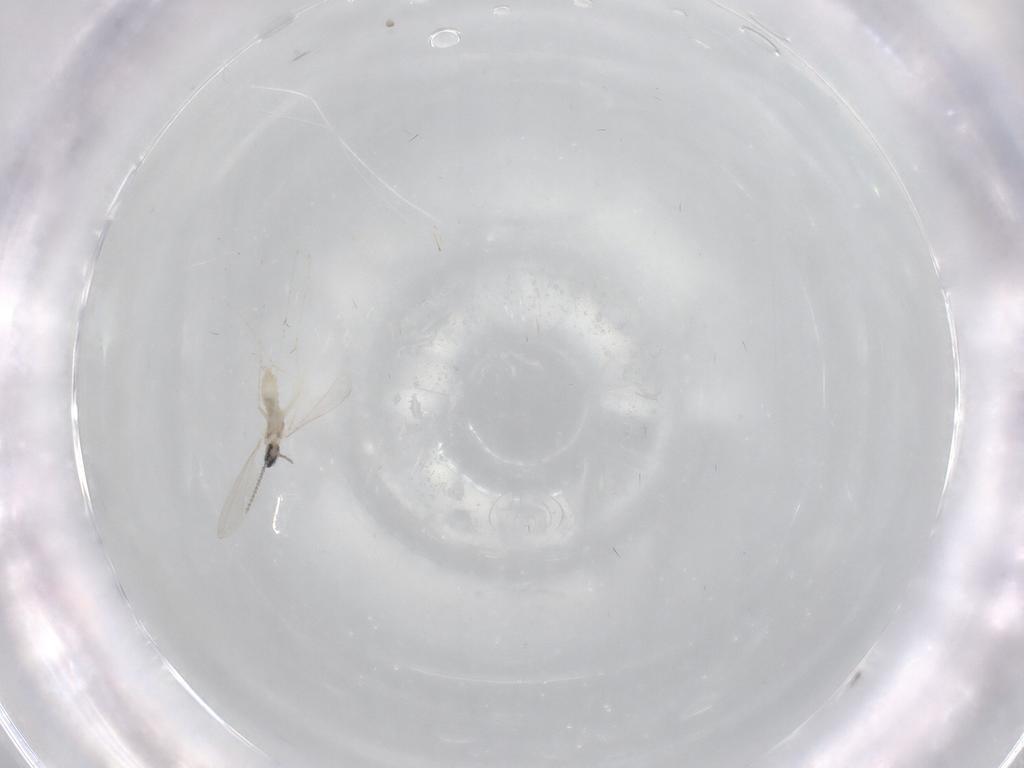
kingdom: Animalia
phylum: Arthropoda
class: Insecta
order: Diptera
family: Cecidomyiidae
